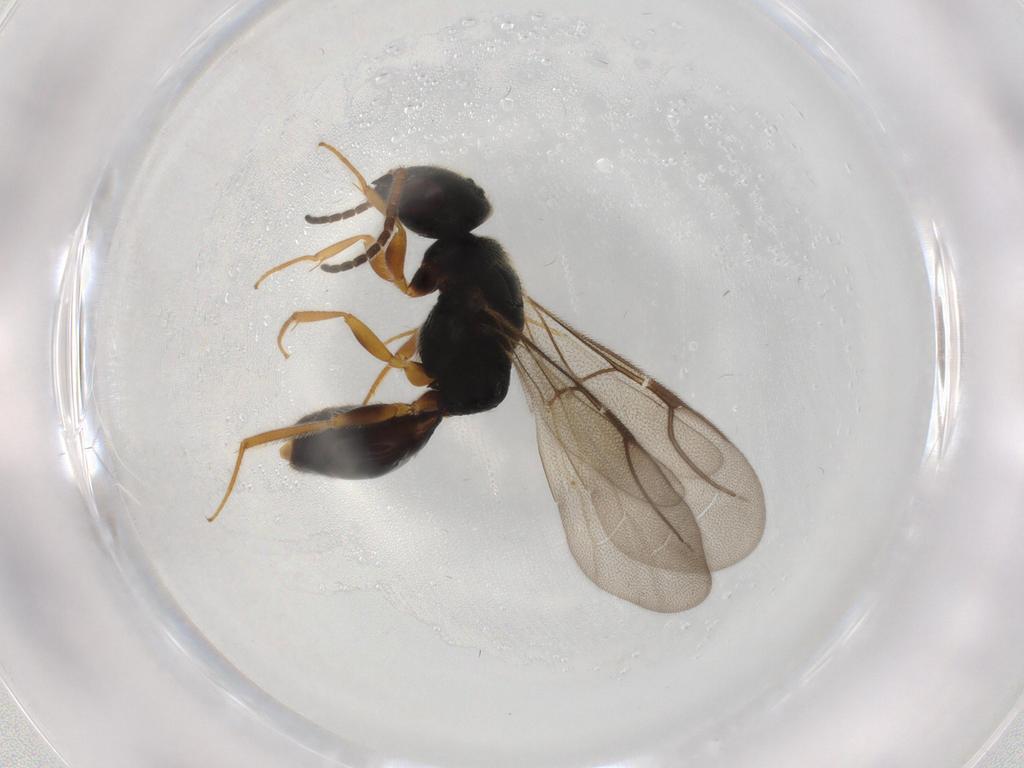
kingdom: Animalia
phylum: Arthropoda
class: Insecta
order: Hymenoptera
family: Bethylidae
